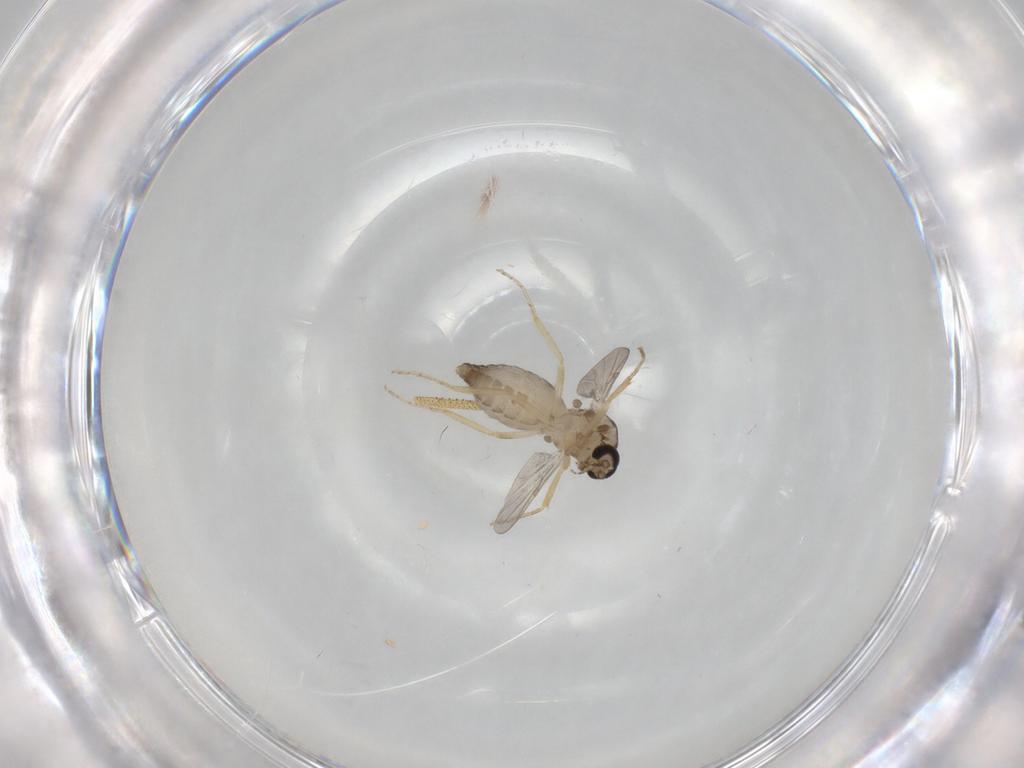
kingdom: Animalia
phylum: Arthropoda
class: Insecta
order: Diptera
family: Ceratopogonidae
